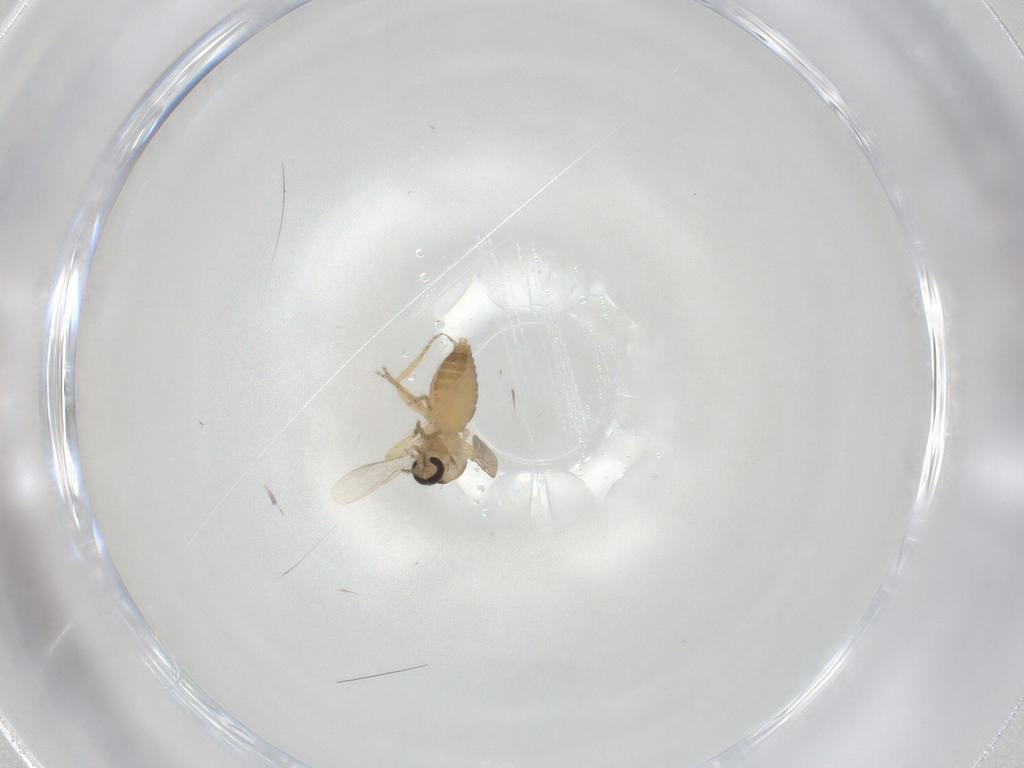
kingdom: Animalia
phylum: Arthropoda
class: Insecta
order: Diptera
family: Ceratopogonidae
